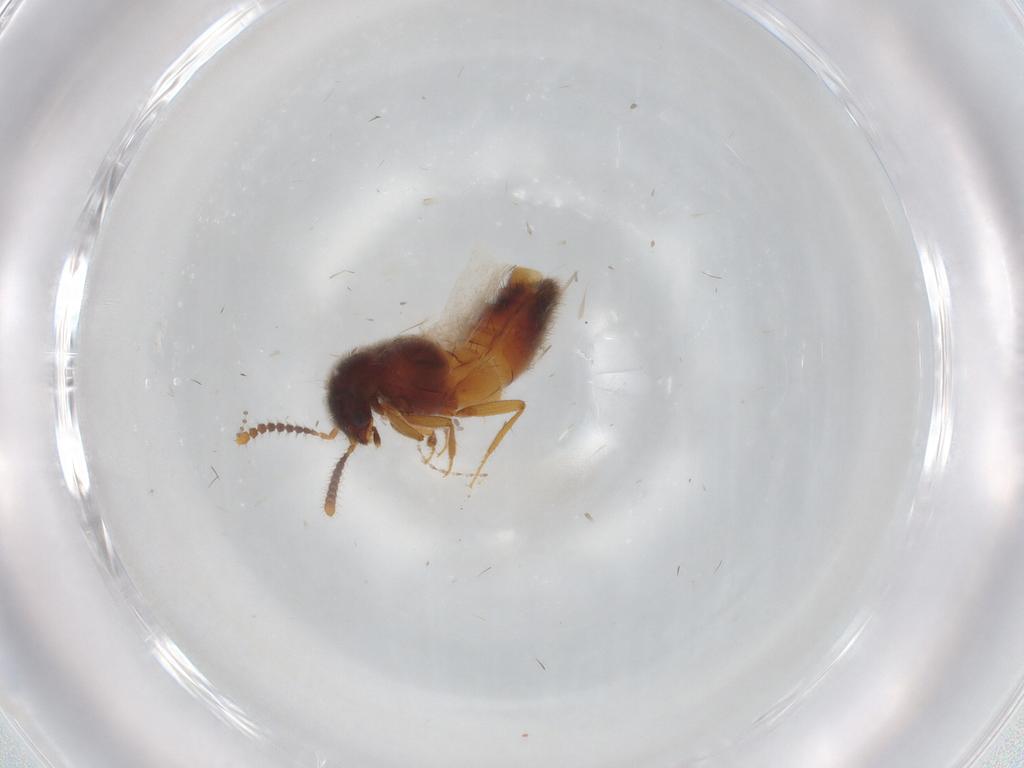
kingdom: Animalia
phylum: Arthropoda
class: Insecta
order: Coleoptera
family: Staphylinidae
